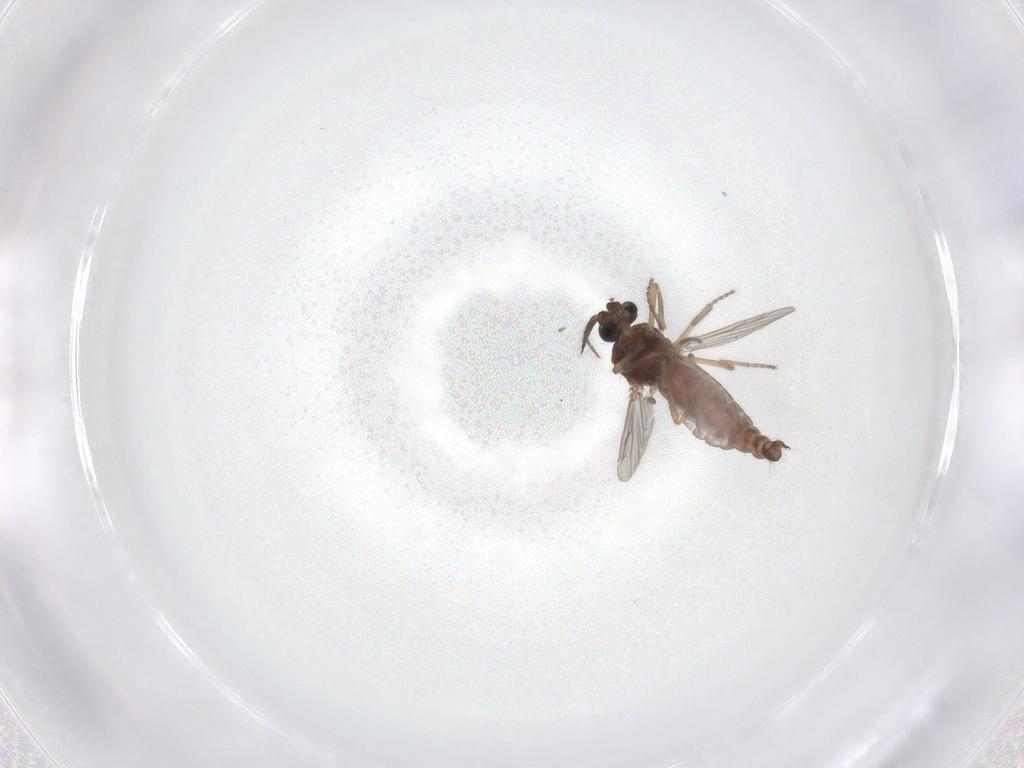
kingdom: Animalia
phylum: Arthropoda
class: Insecta
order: Diptera
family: Ceratopogonidae
